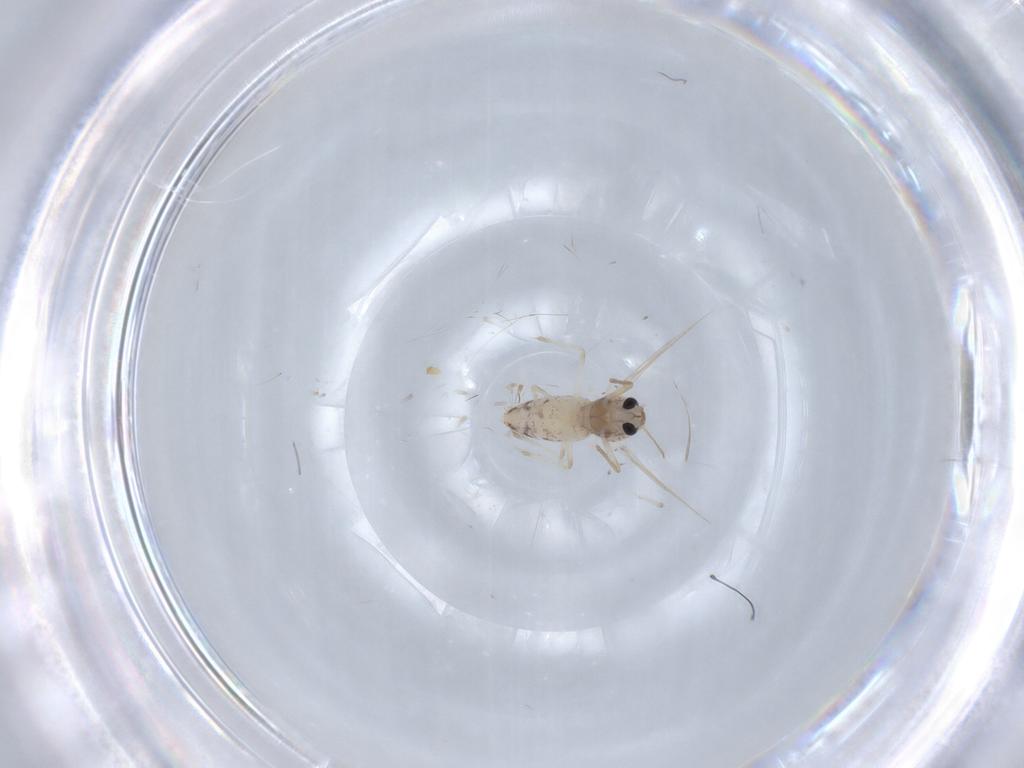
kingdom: Animalia
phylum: Arthropoda
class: Insecta
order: Diptera
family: Chironomidae
